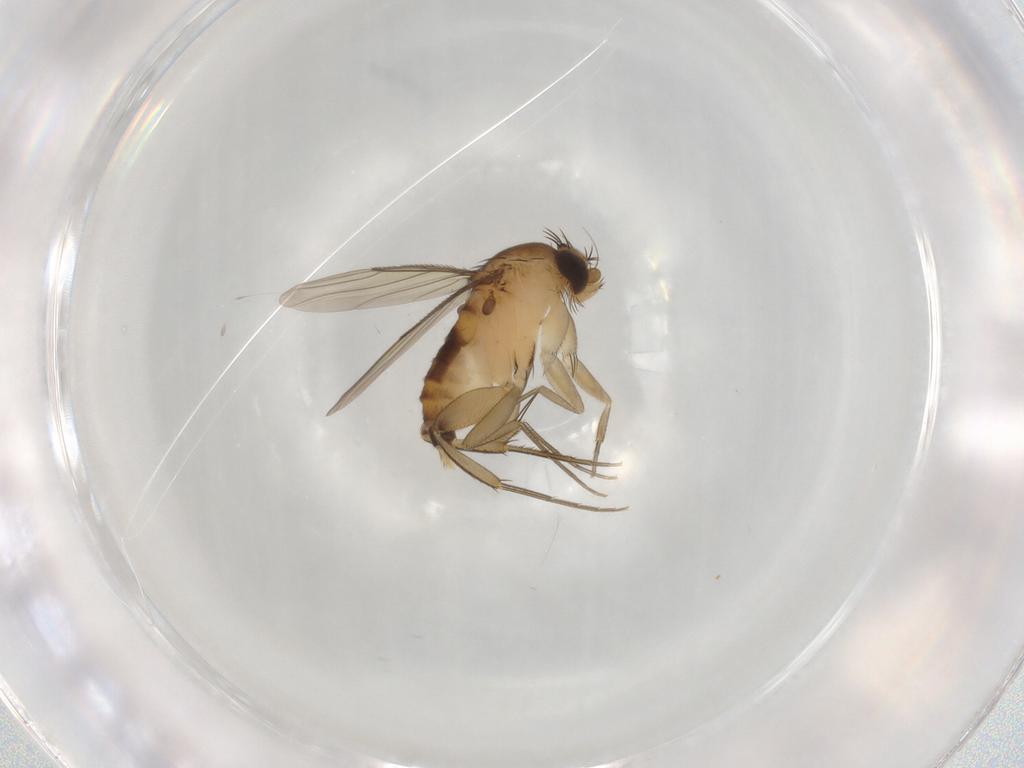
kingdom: Animalia
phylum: Arthropoda
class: Insecta
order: Diptera
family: Phoridae
